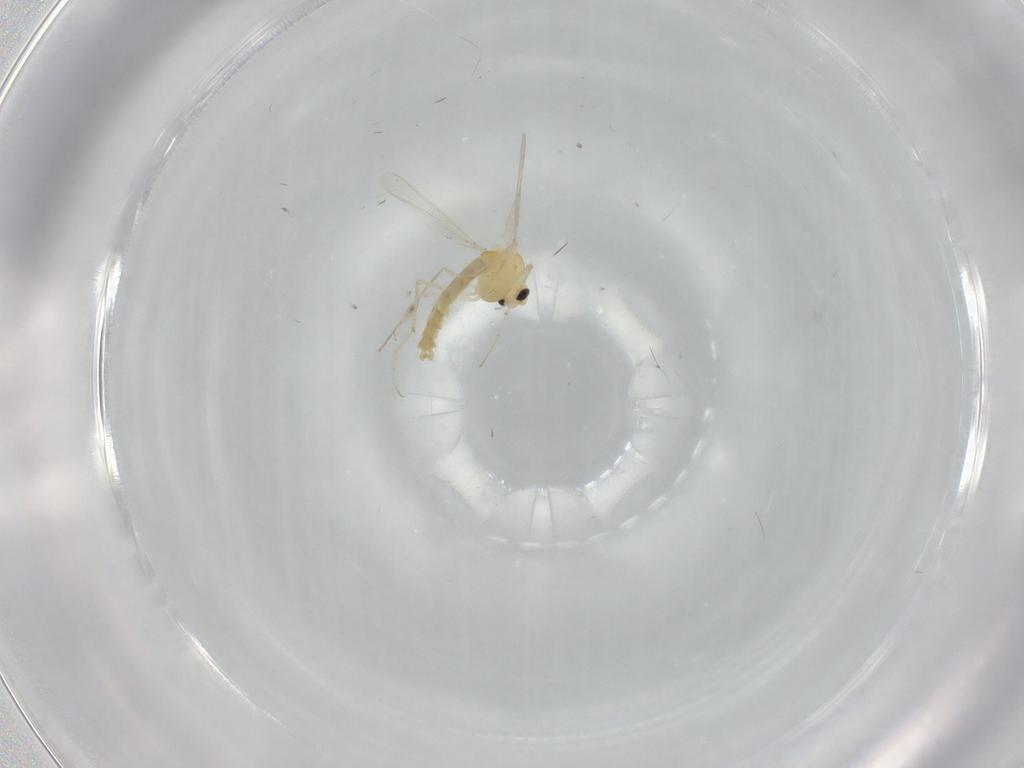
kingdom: Animalia
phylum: Arthropoda
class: Insecta
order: Diptera
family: Chironomidae
